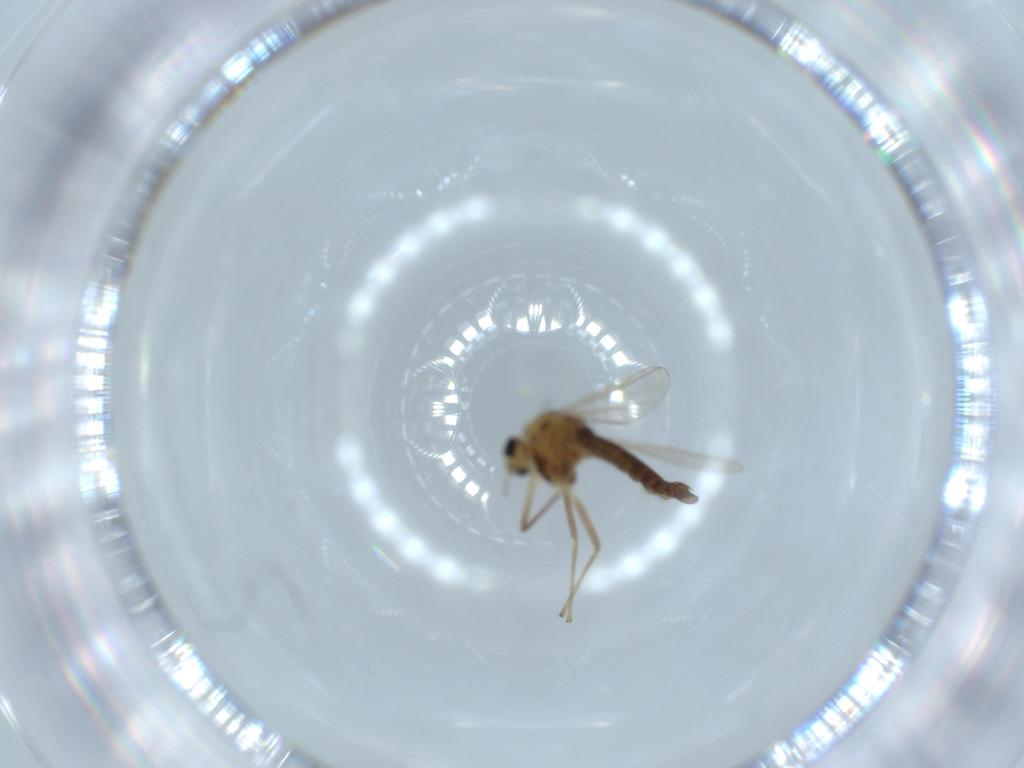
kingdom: Animalia
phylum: Arthropoda
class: Insecta
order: Diptera
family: Chironomidae
